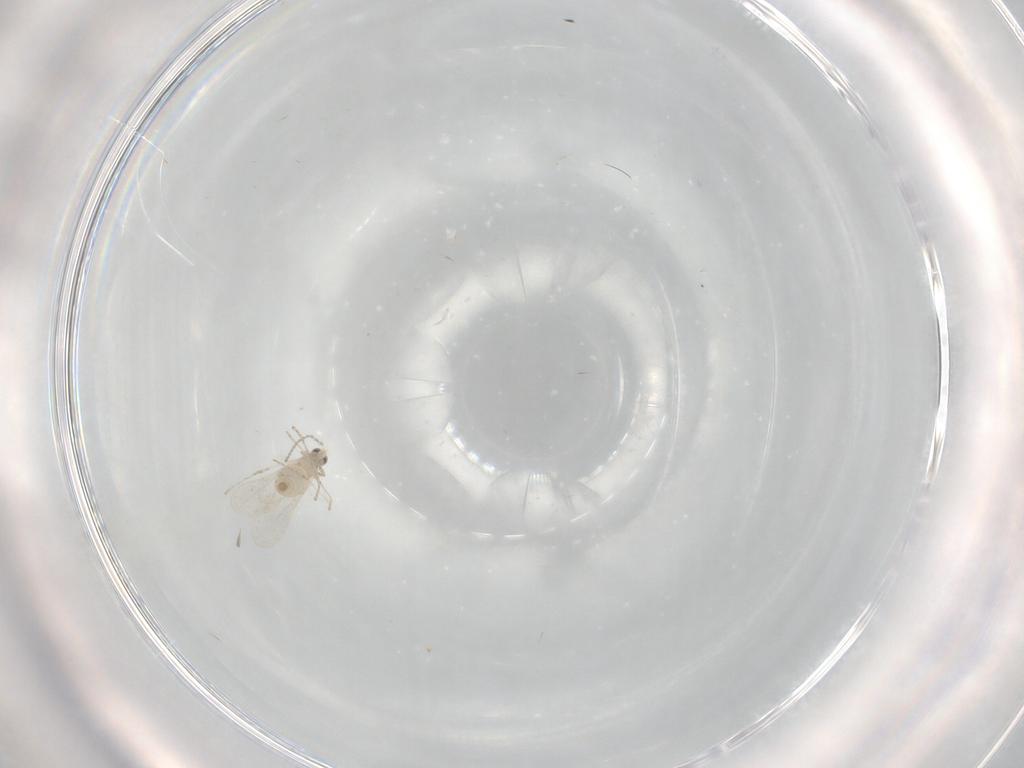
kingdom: Animalia
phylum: Arthropoda
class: Insecta
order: Diptera
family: Cecidomyiidae
